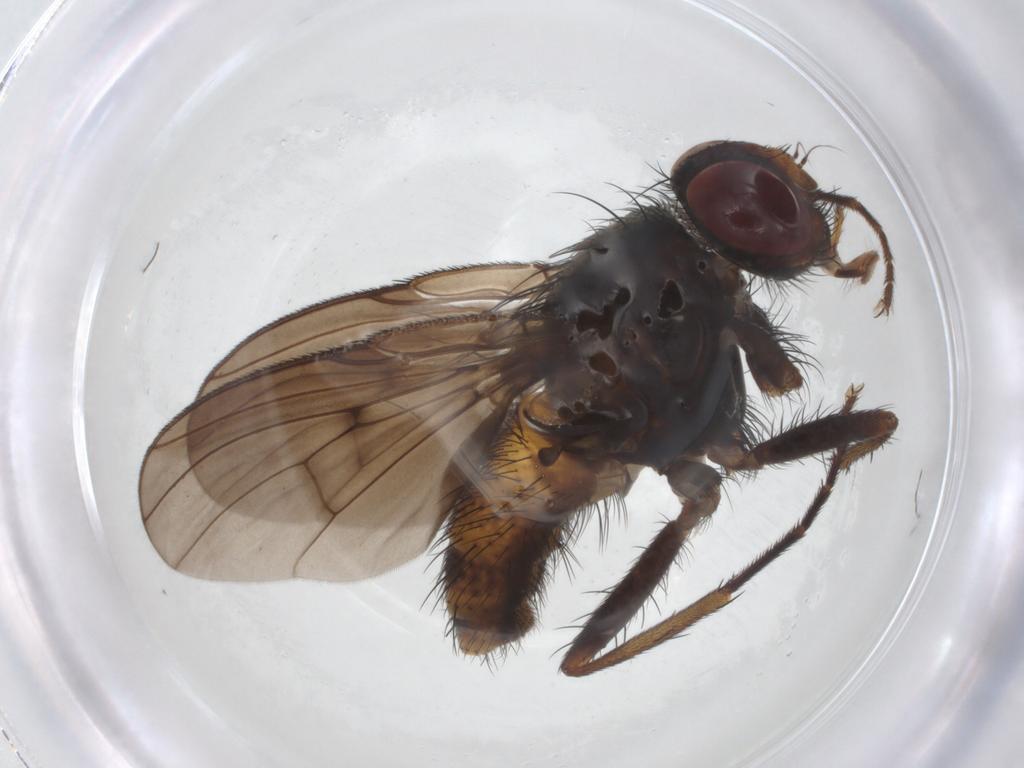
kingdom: Animalia
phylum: Arthropoda
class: Insecta
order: Diptera
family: Muscidae
